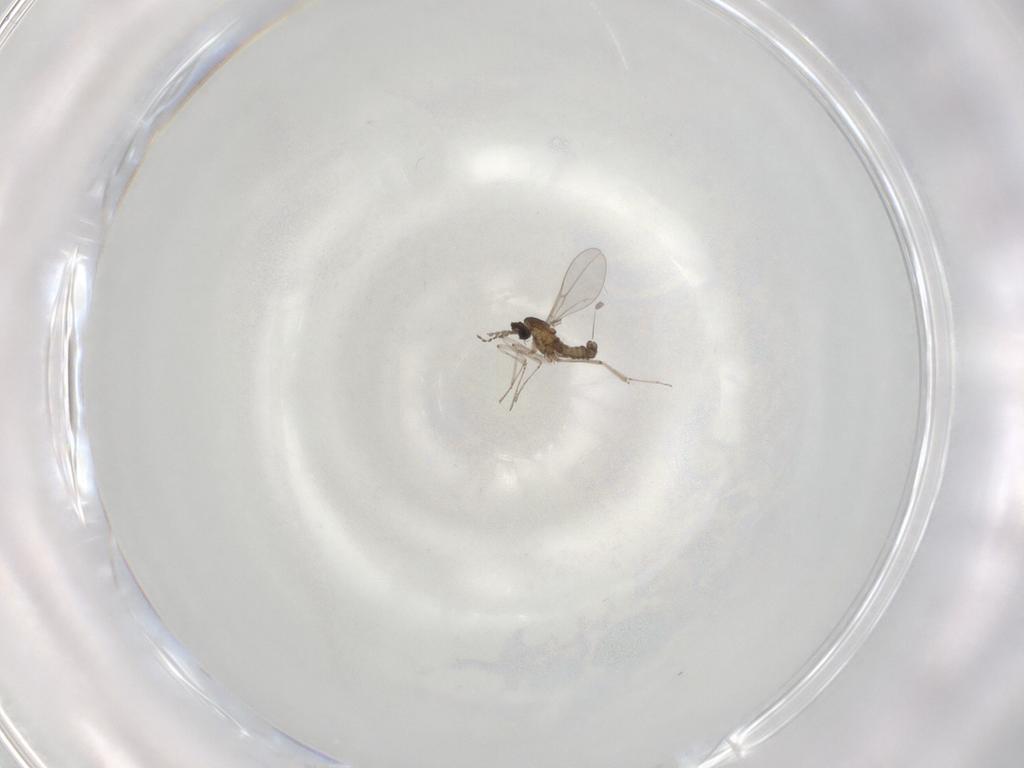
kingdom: Animalia
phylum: Arthropoda
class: Insecta
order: Diptera
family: Cecidomyiidae
